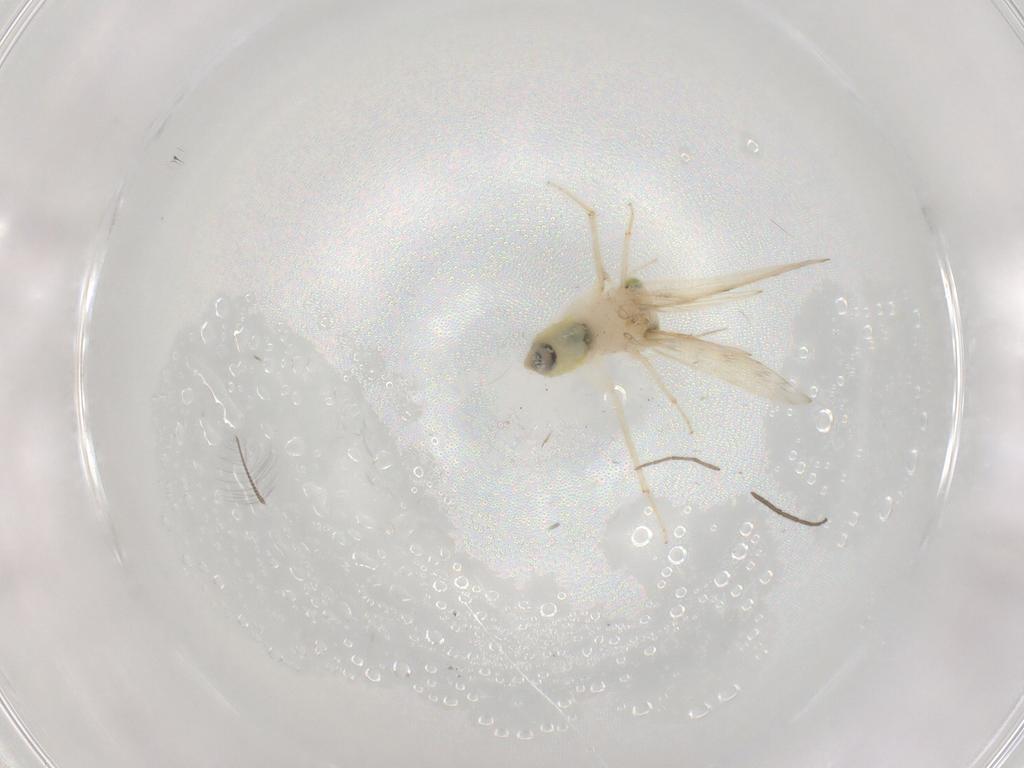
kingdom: Animalia
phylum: Arthropoda
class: Insecta
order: Psocodea
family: Lepidopsocidae
